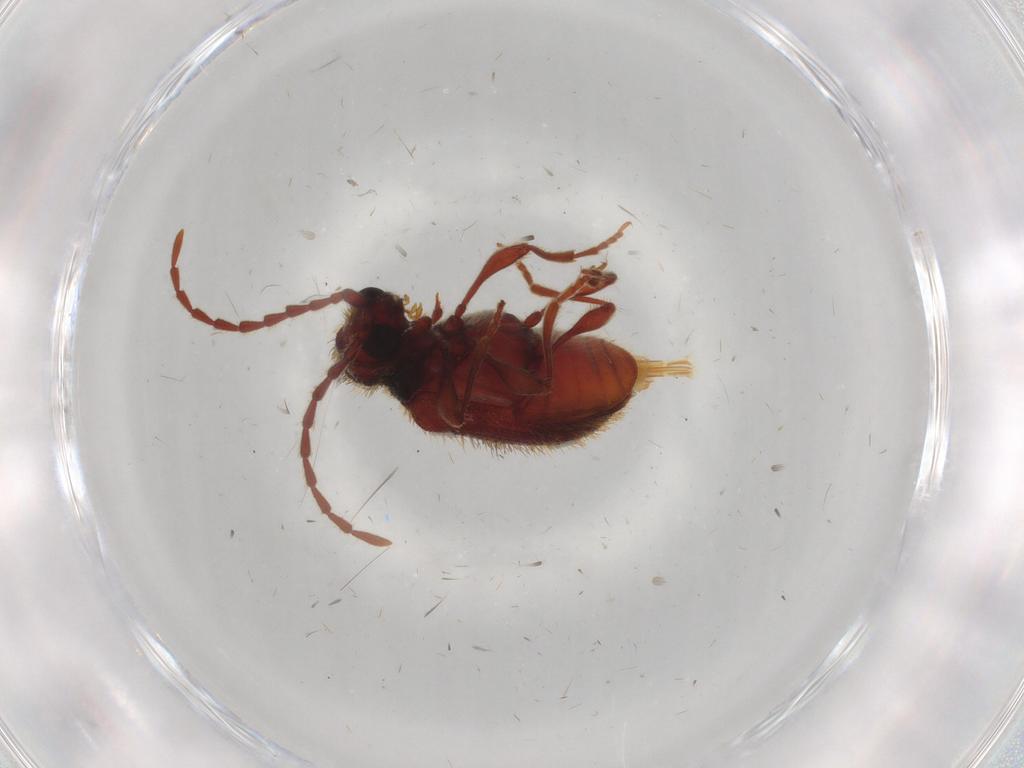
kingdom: Animalia
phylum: Arthropoda
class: Insecta
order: Coleoptera
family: Ptinidae
